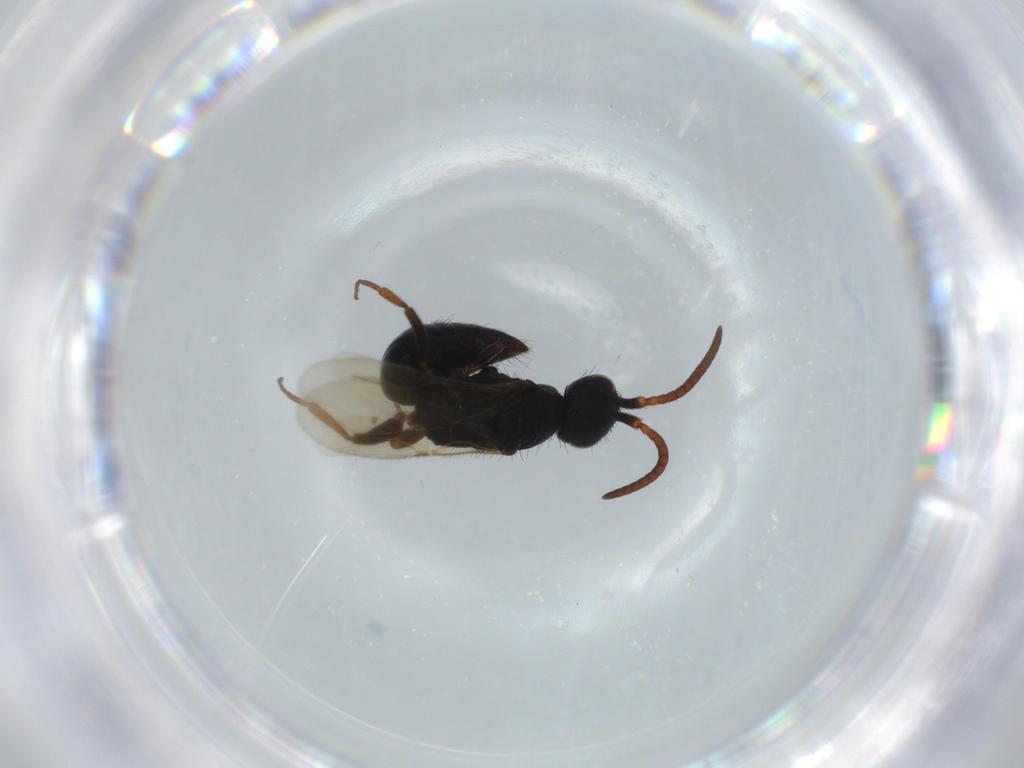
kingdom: Animalia
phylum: Arthropoda
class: Insecta
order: Hymenoptera
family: Bethylidae
